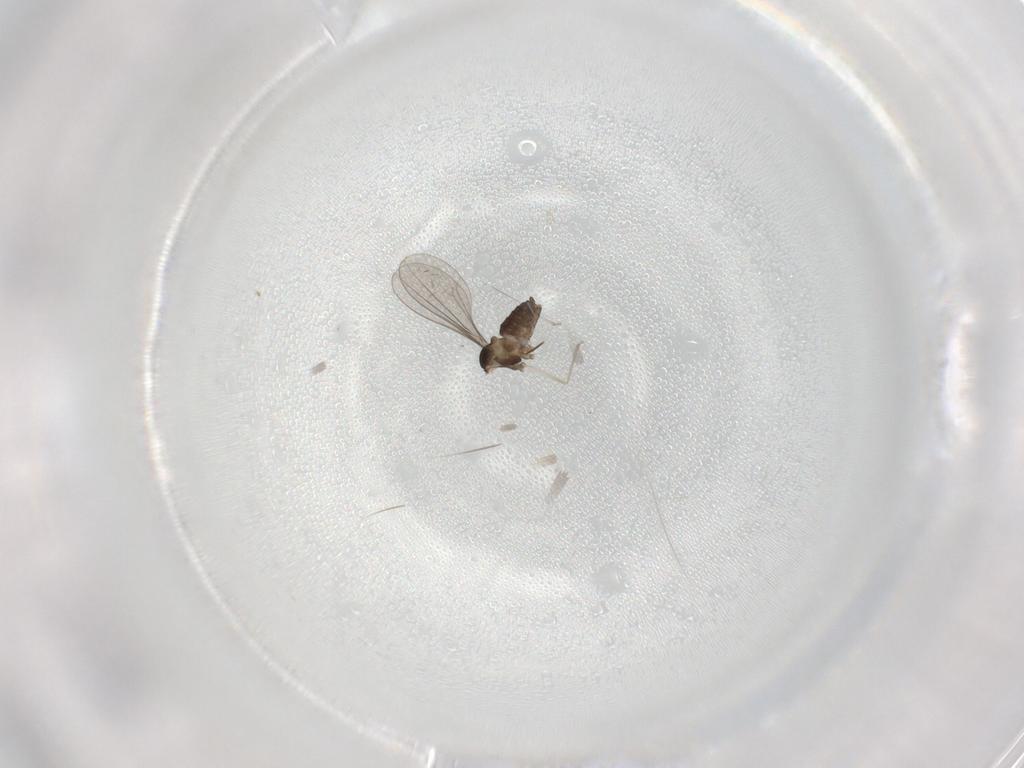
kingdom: Animalia
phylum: Arthropoda
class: Insecta
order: Diptera
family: Cecidomyiidae
